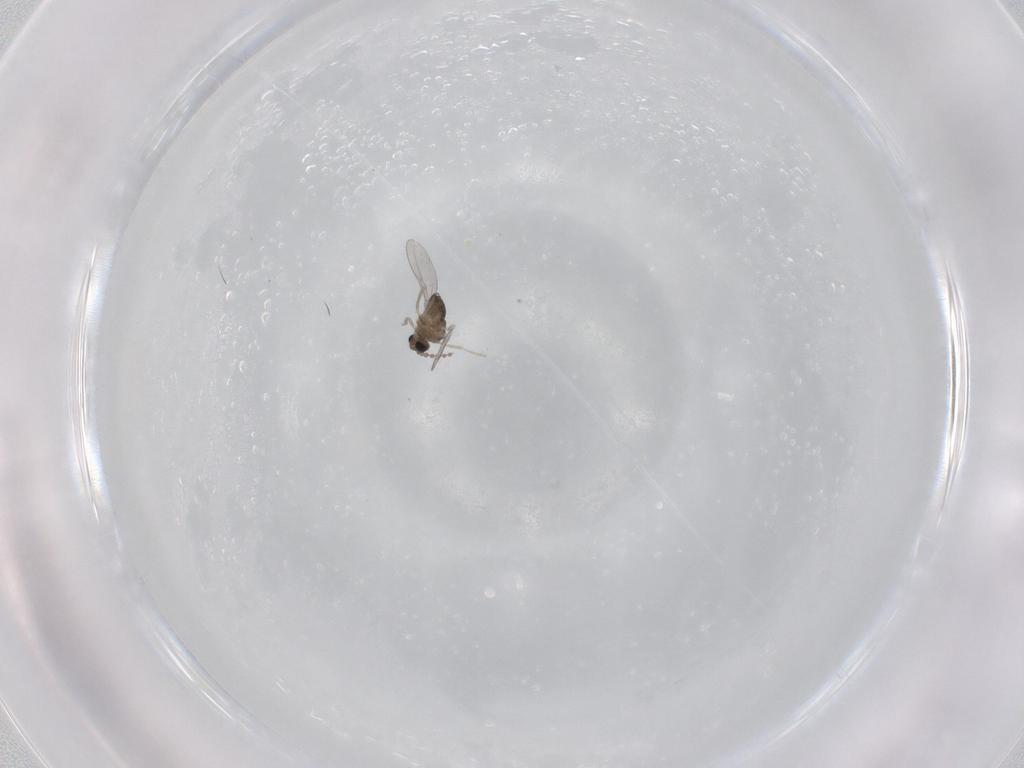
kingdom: Animalia
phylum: Arthropoda
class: Insecta
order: Diptera
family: Cecidomyiidae
